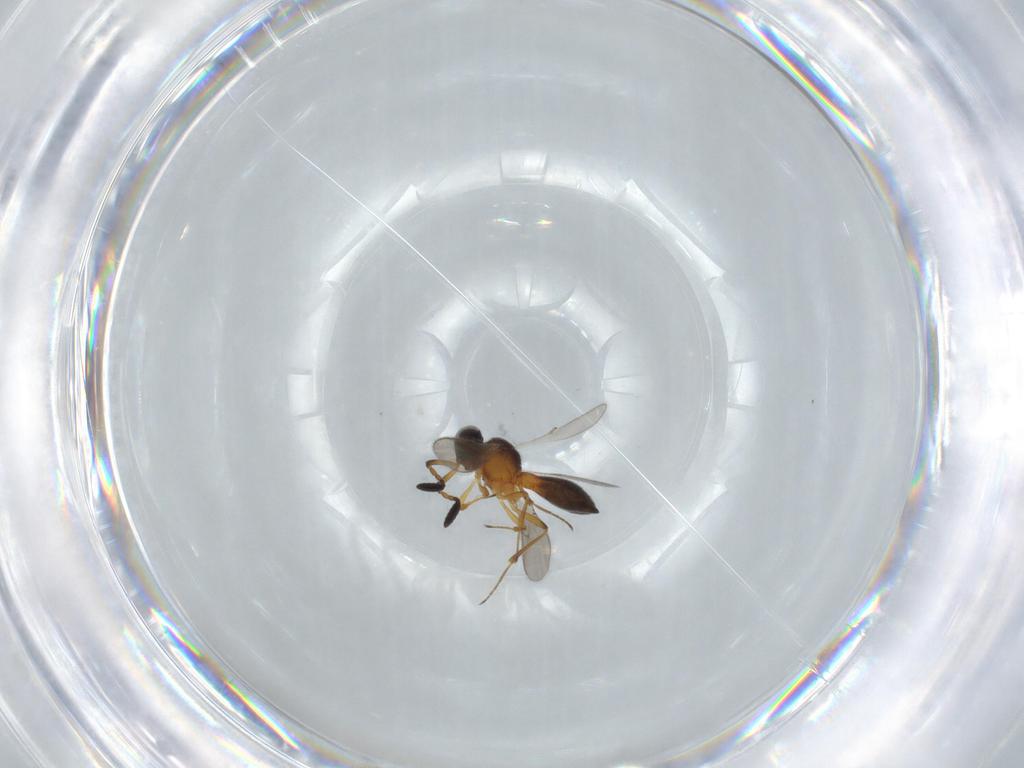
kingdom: Animalia
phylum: Arthropoda
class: Insecta
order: Hymenoptera
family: Scelionidae
